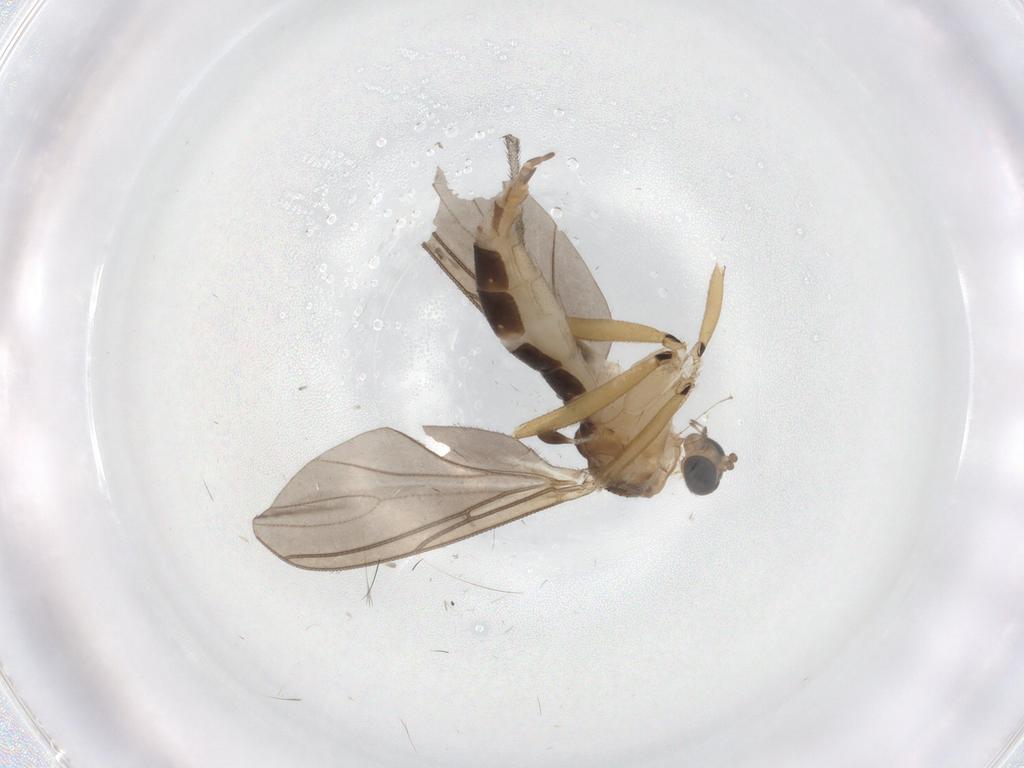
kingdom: Animalia
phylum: Arthropoda
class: Insecta
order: Diptera
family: Sciaridae
